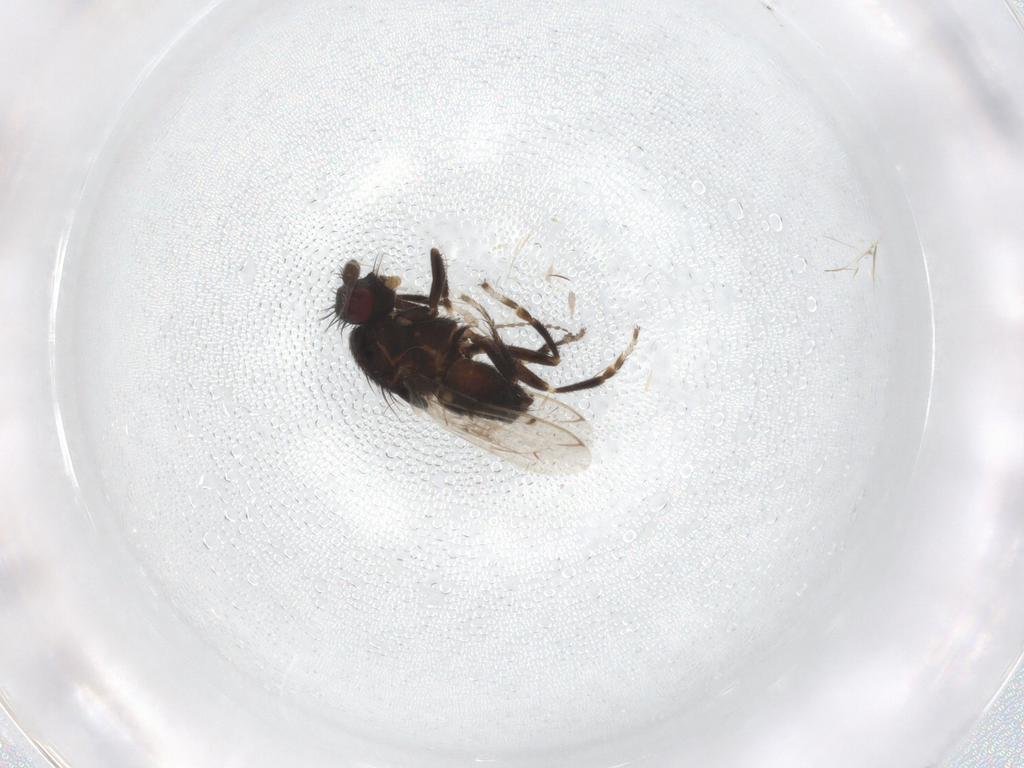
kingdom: Animalia
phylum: Arthropoda
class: Insecta
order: Diptera
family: Sphaeroceridae
